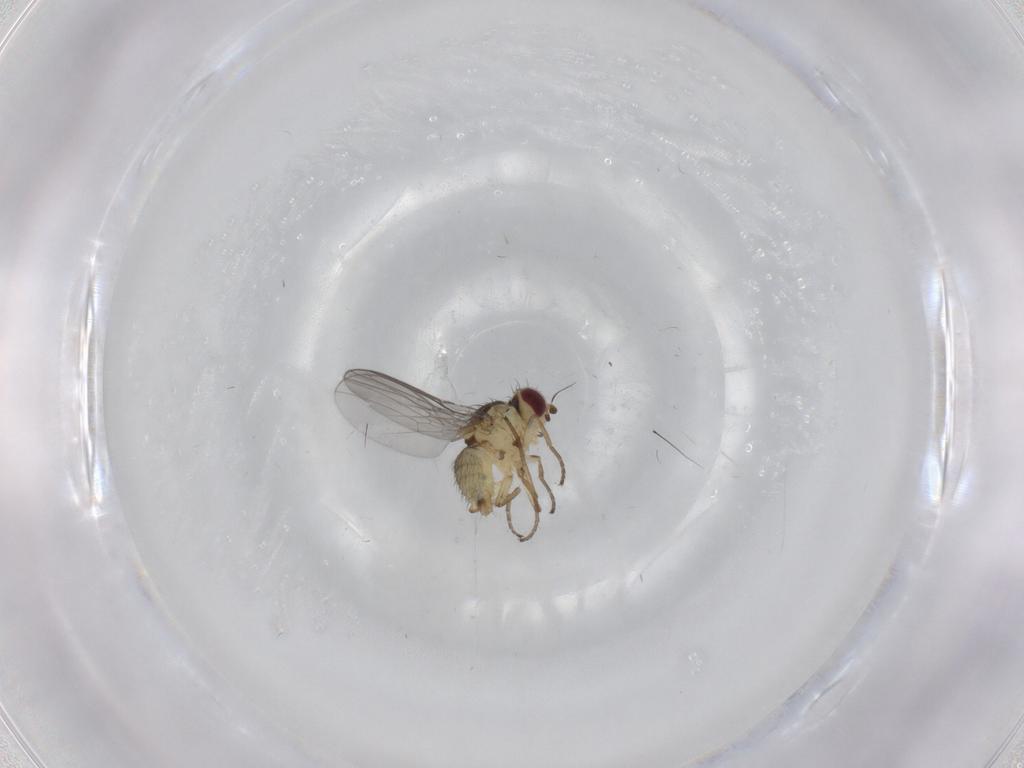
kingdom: Animalia
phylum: Arthropoda
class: Insecta
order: Diptera
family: Agromyzidae
